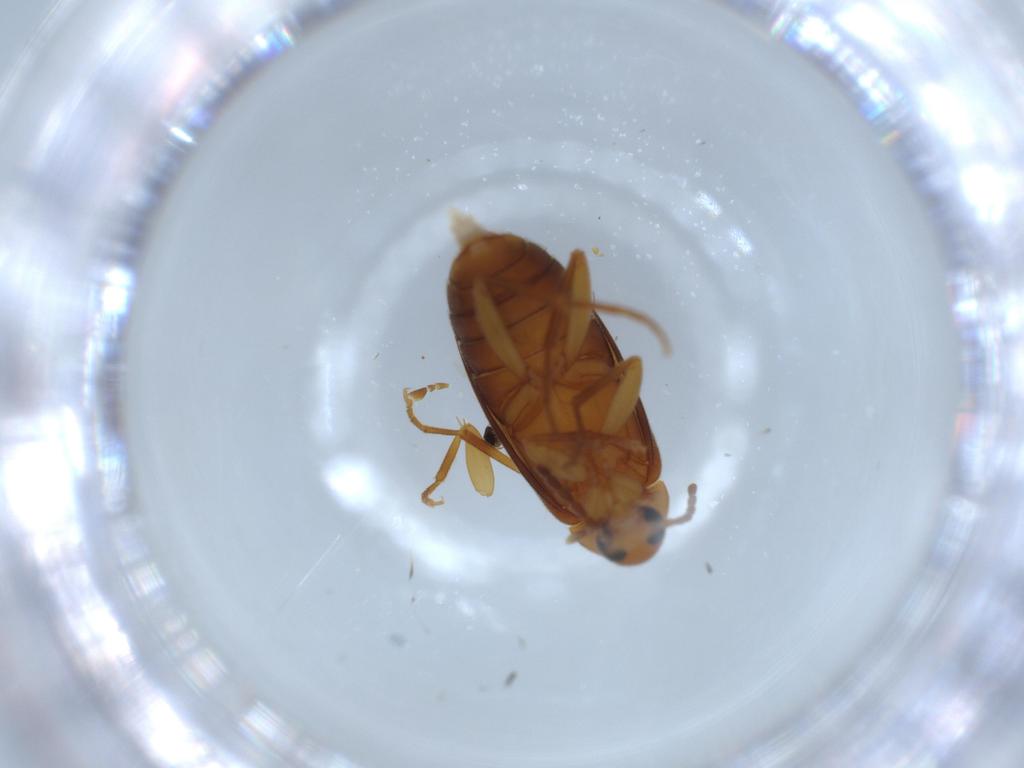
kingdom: Animalia
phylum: Arthropoda
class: Insecta
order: Coleoptera
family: Scraptiidae
